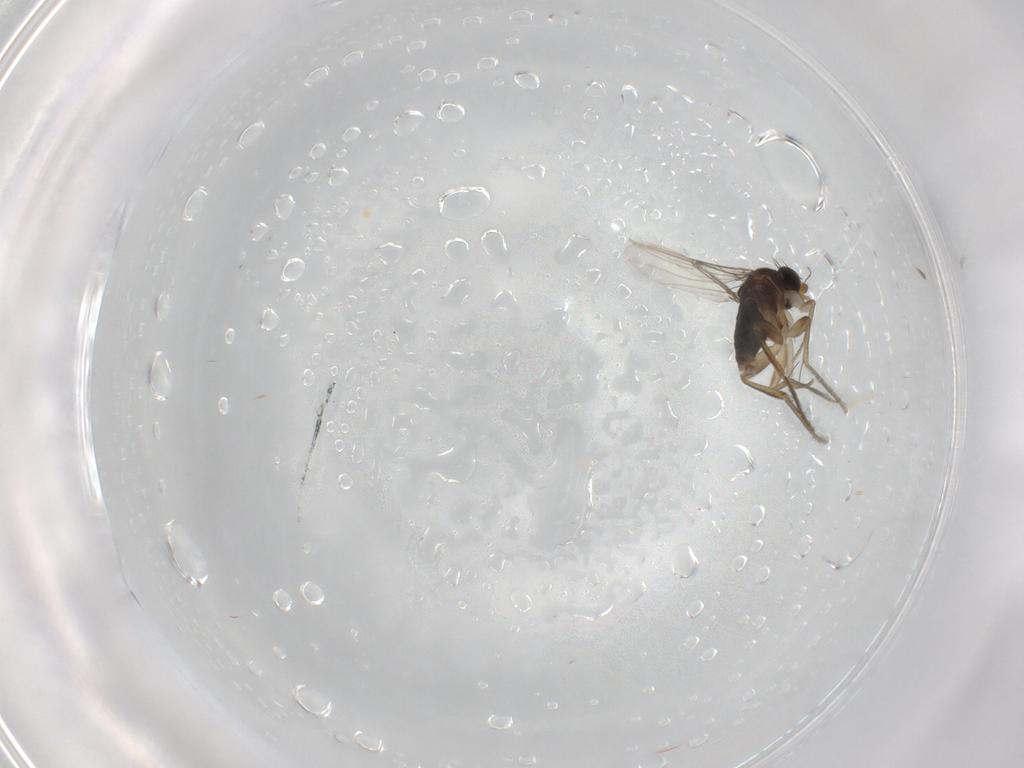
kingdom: Animalia
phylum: Arthropoda
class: Insecta
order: Diptera
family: Phoridae
